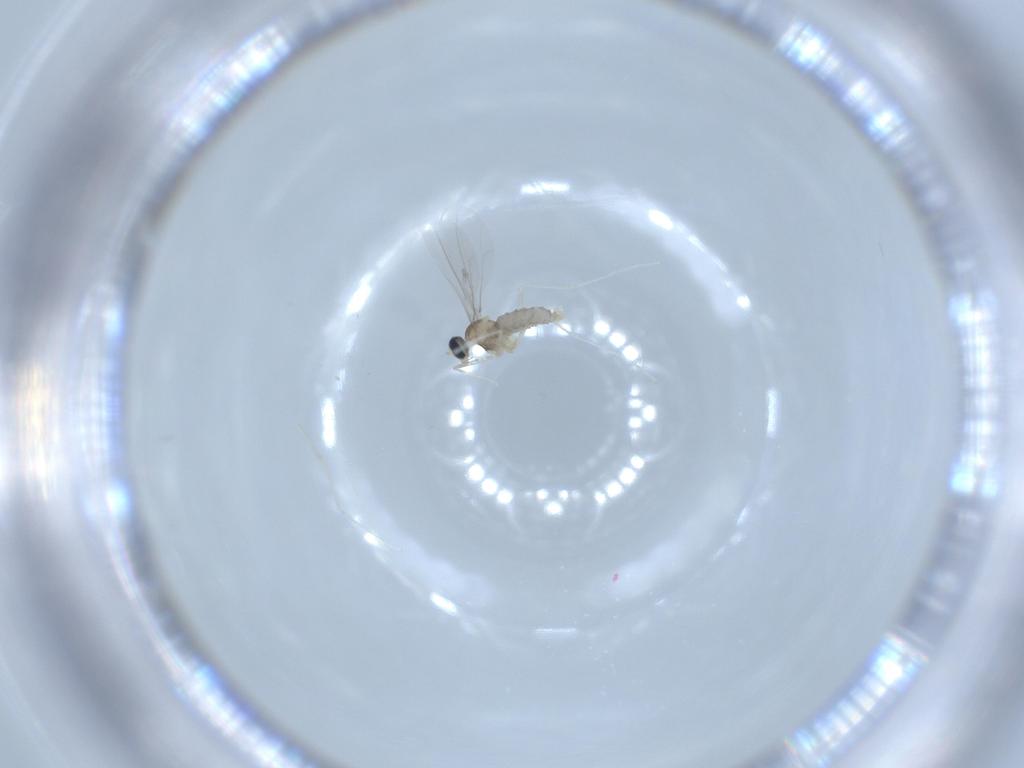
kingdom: Animalia
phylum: Arthropoda
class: Insecta
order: Diptera
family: Cecidomyiidae
